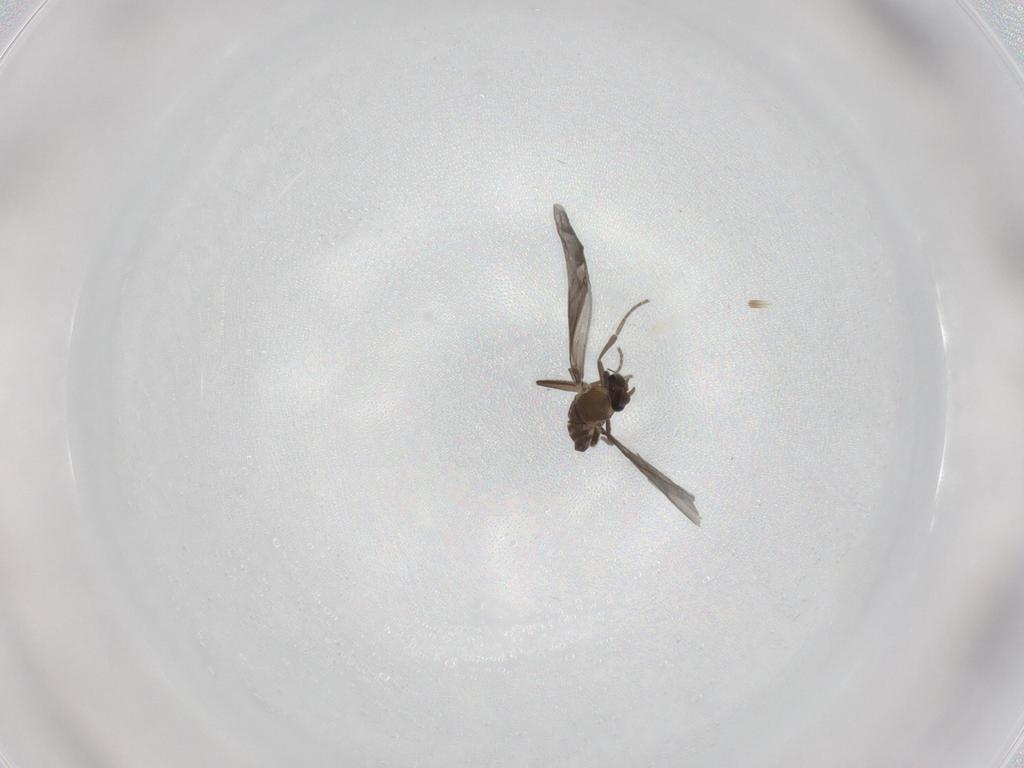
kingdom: Animalia
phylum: Arthropoda
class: Insecta
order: Diptera
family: Cecidomyiidae
